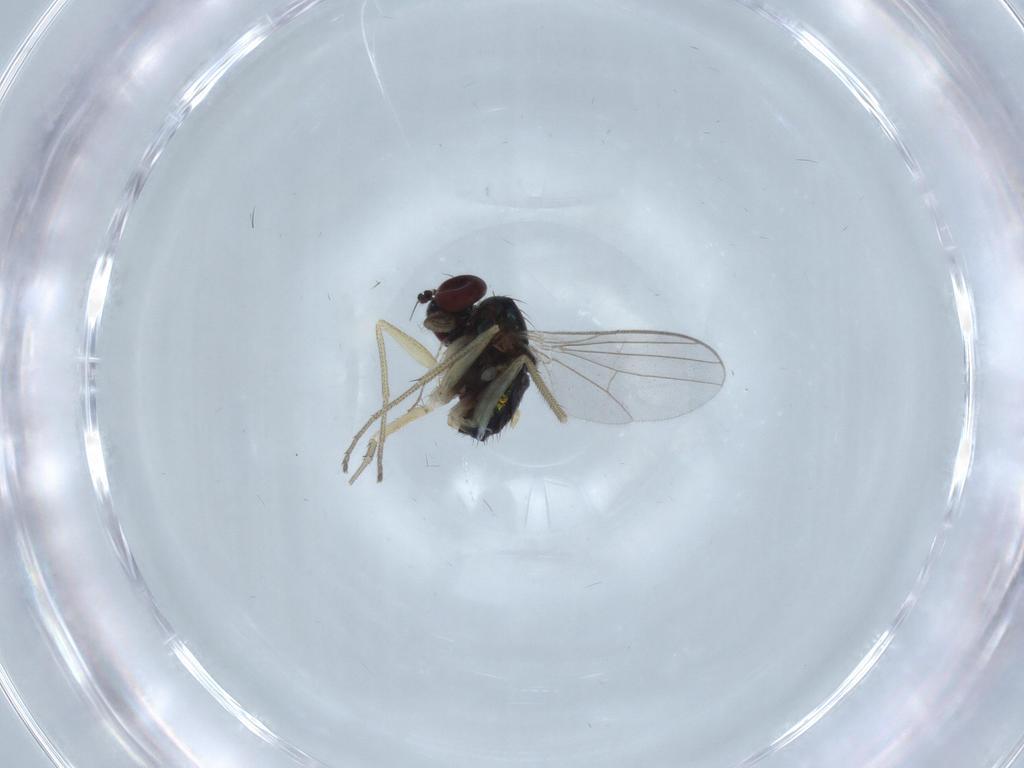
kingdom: Animalia
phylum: Arthropoda
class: Insecta
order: Diptera
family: Dolichopodidae
